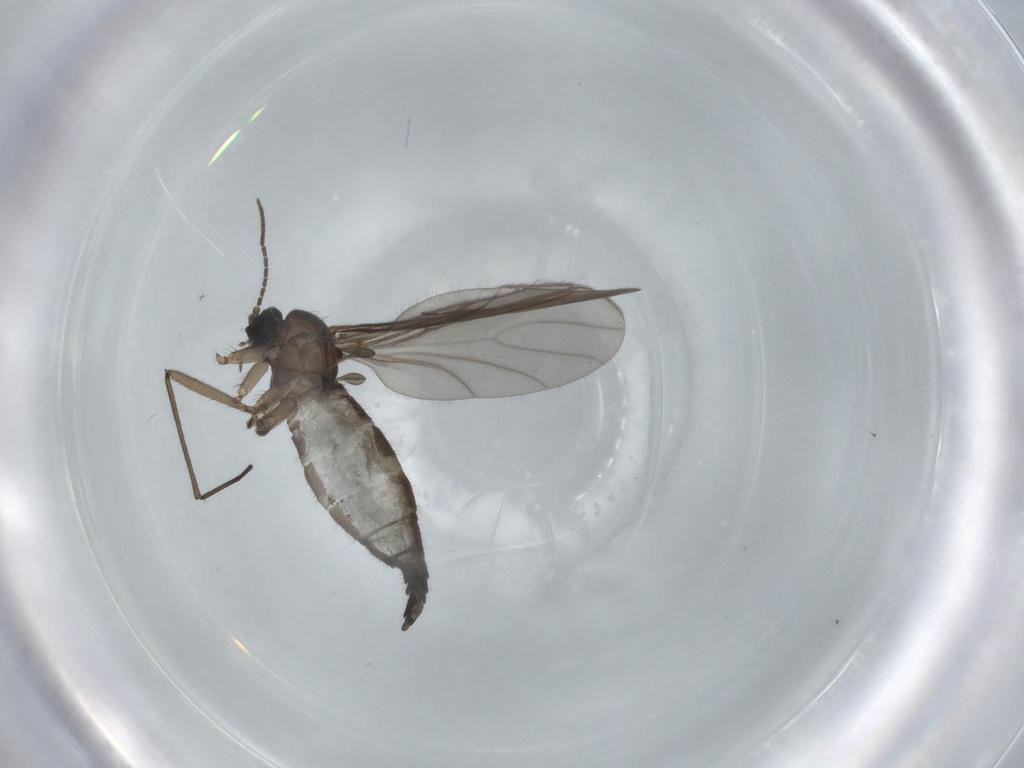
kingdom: Animalia
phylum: Arthropoda
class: Insecta
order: Diptera
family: Sciaridae
